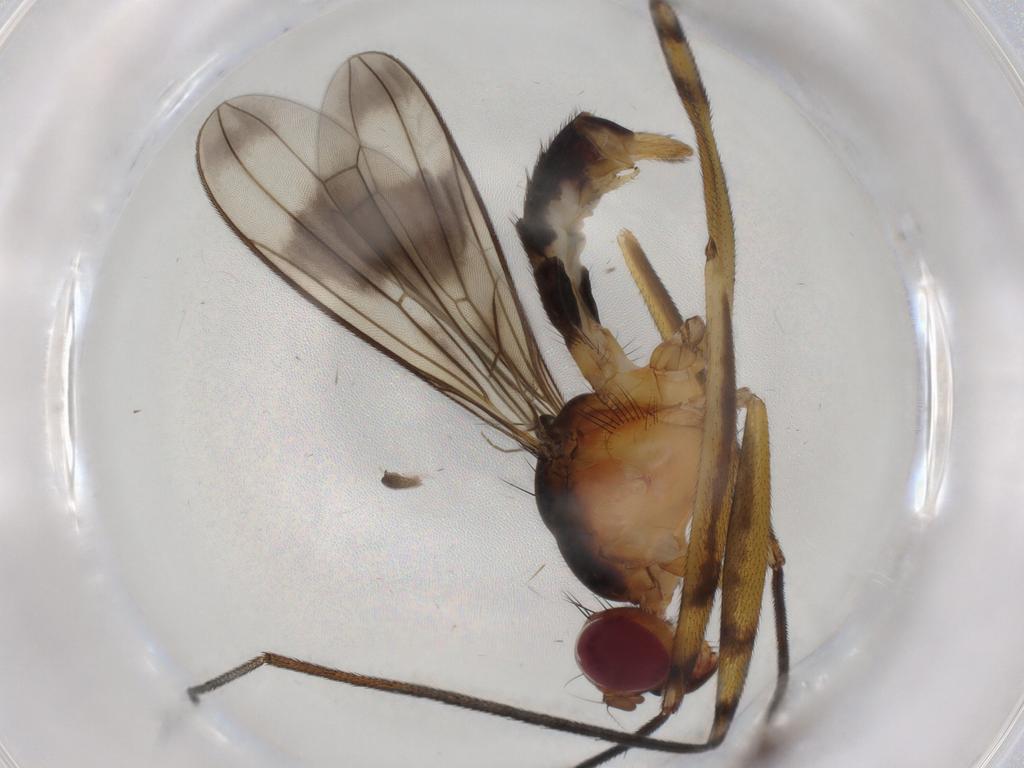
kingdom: Animalia
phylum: Arthropoda
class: Insecta
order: Diptera
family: Micropezidae
